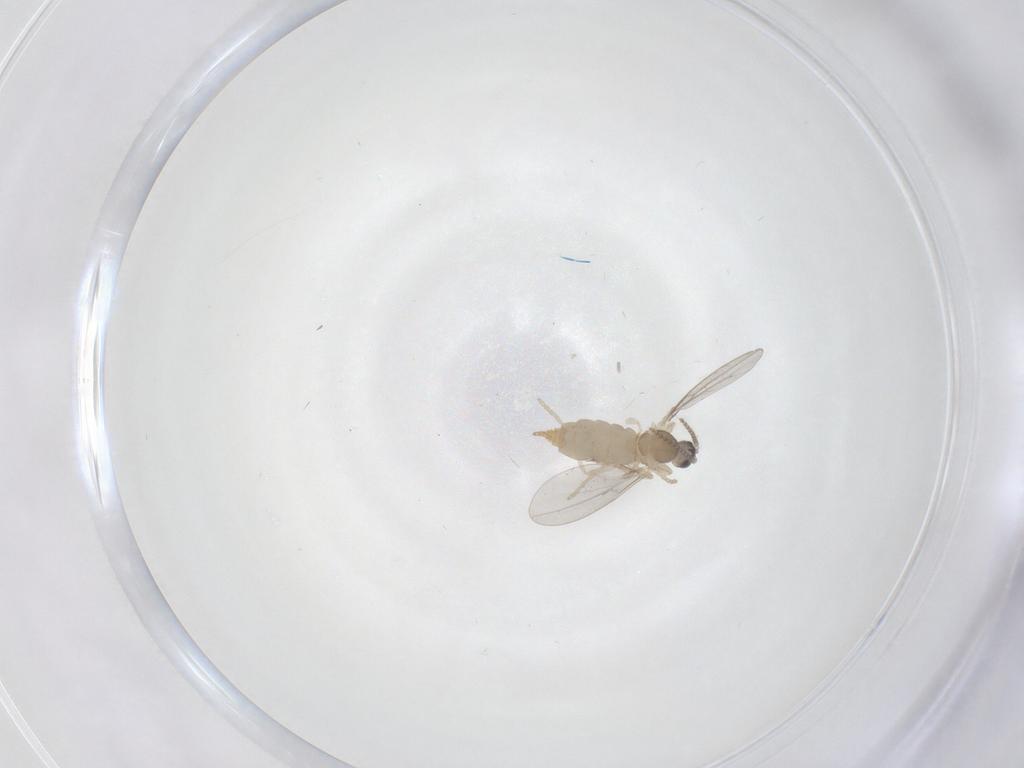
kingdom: Animalia
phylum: Arthropoda
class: Insecta
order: Diptera
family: Cecidomyiidae
